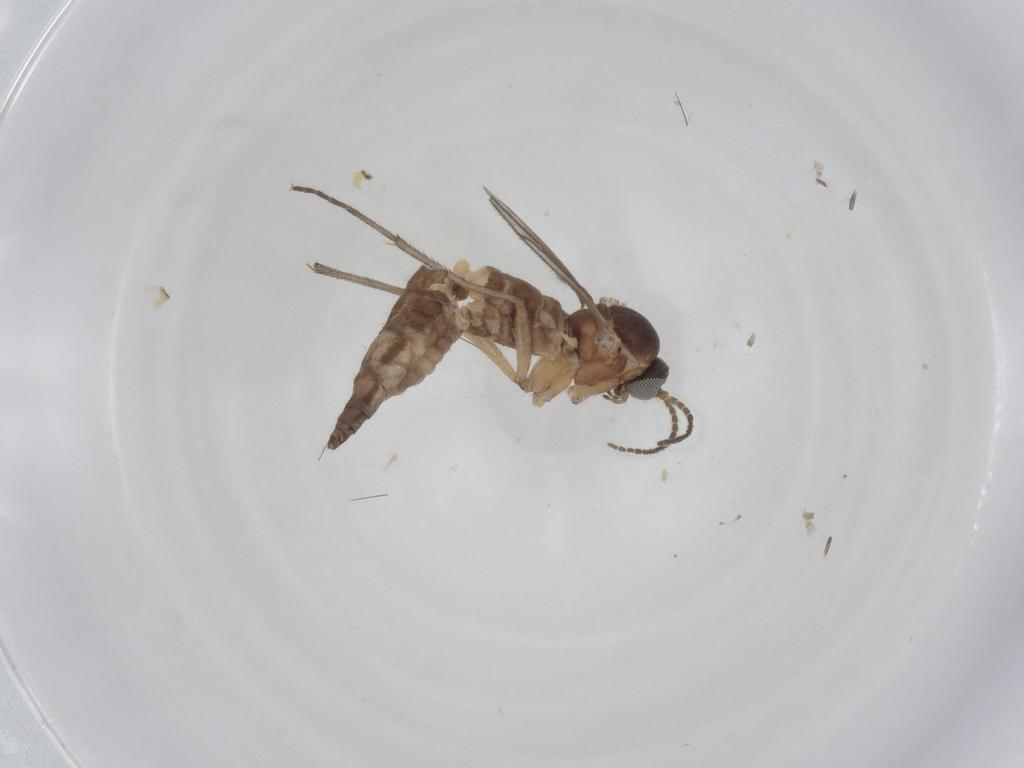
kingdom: Animalia
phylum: Arthropoda
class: Insecta
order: Diptera
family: Sciaridae
